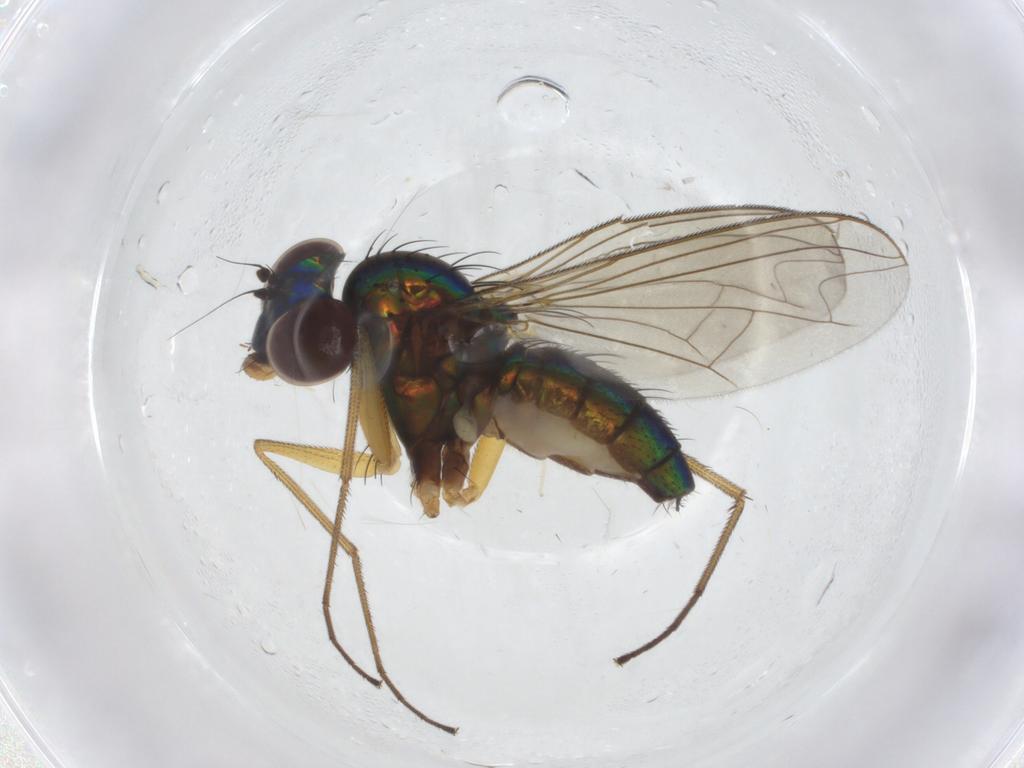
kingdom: Animalia
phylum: Arthropoda
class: Insecta
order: Diptera
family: Dolichopodidae
